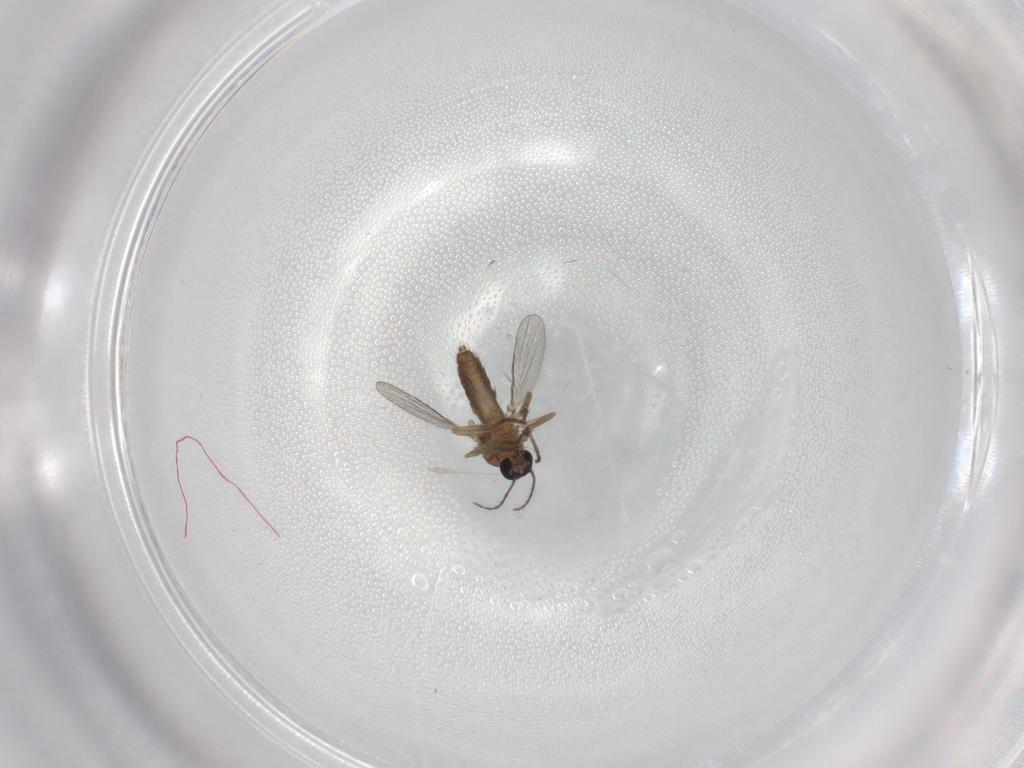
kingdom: Animalia
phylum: Arthropoda
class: Insecta
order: Diptera
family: Ceratopogonidae
